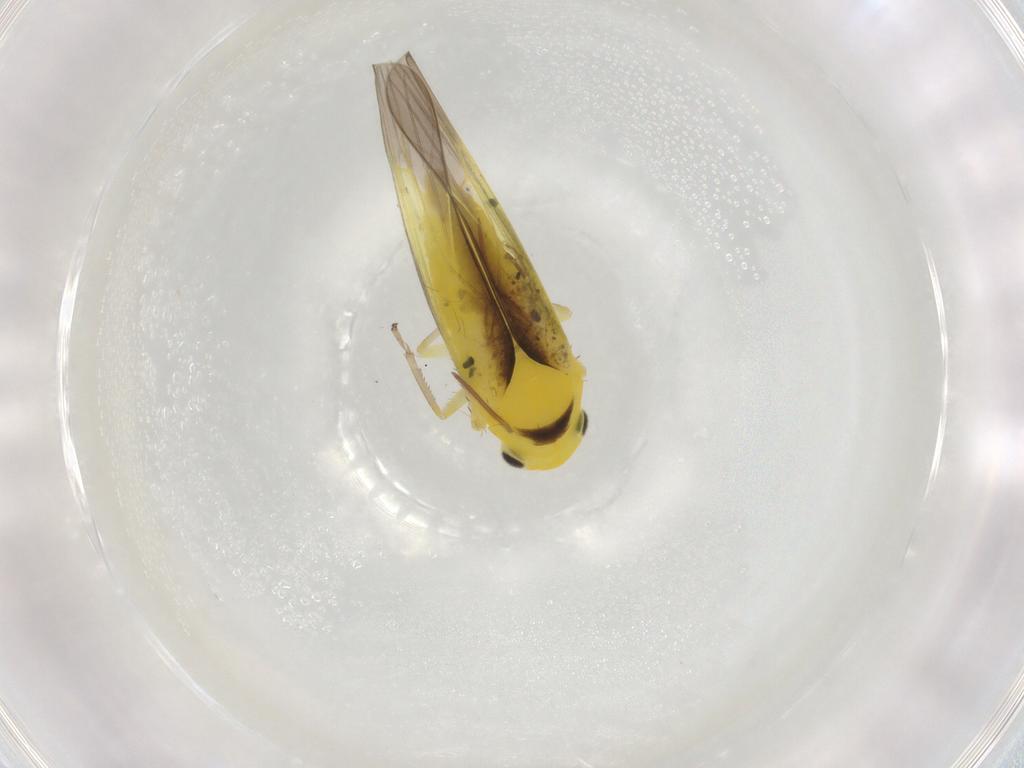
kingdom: Animalia
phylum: Arthropoda
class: Insecta
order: Hemiptera
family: Cicadellidae
